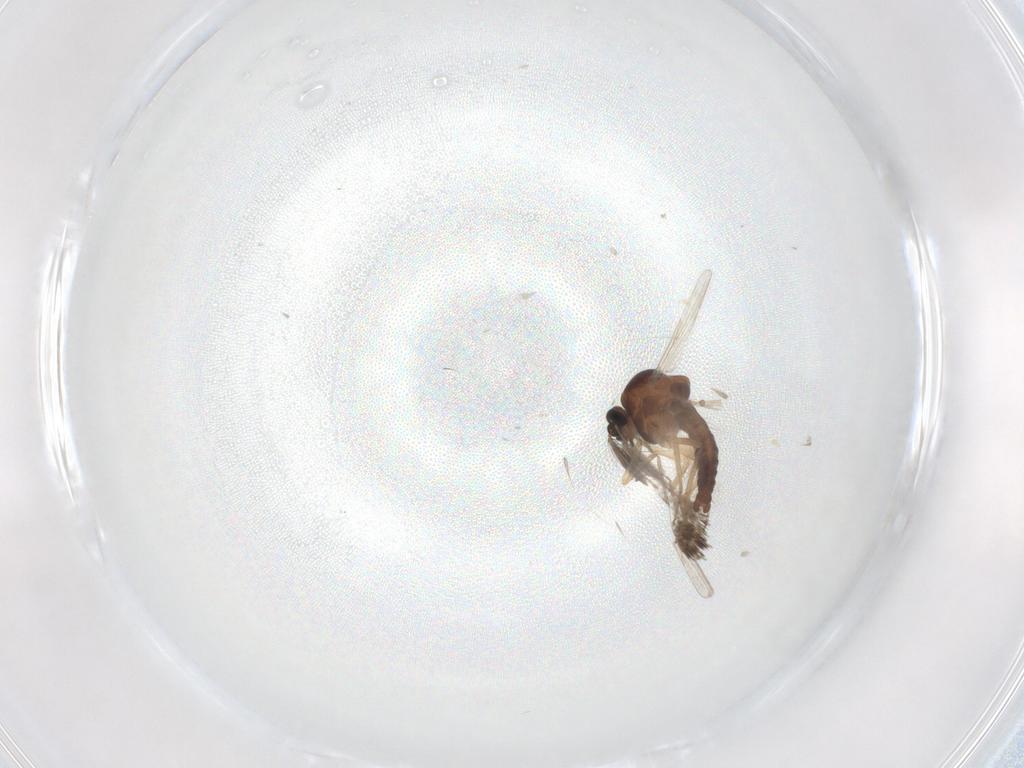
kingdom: Animalia
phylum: Arthropoda
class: Insecta
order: Diptera
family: Ceratopogonidae
